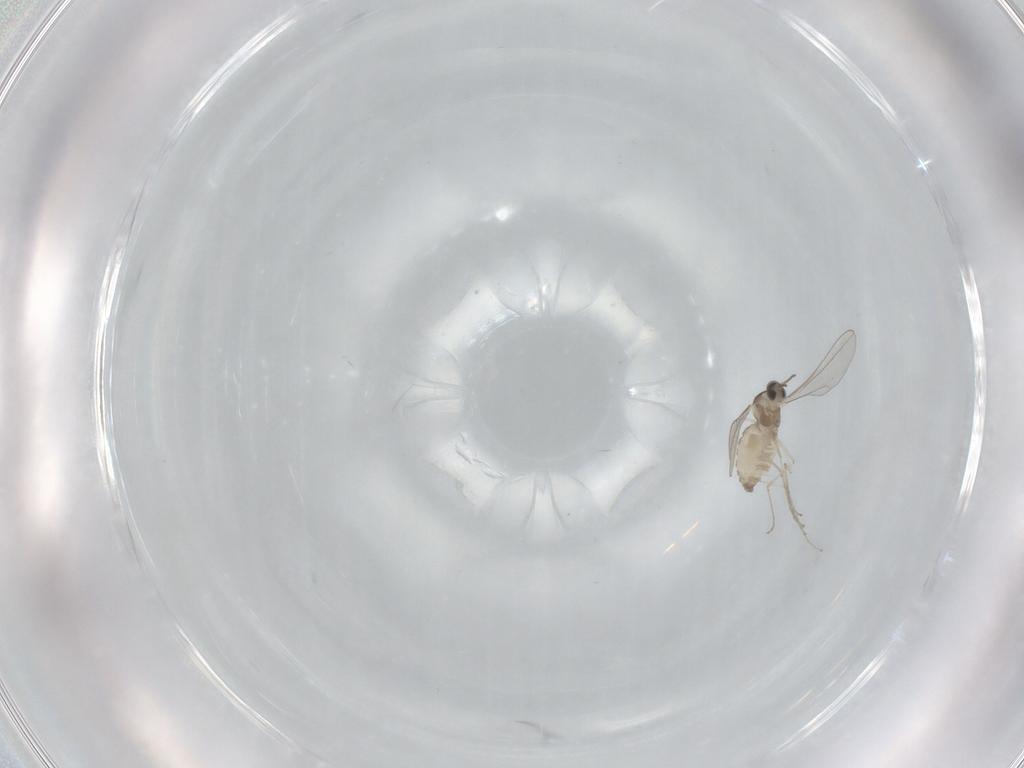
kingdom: Animalia
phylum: Arthropoda
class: Insecta
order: Diptera
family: Cecidomyiidae
